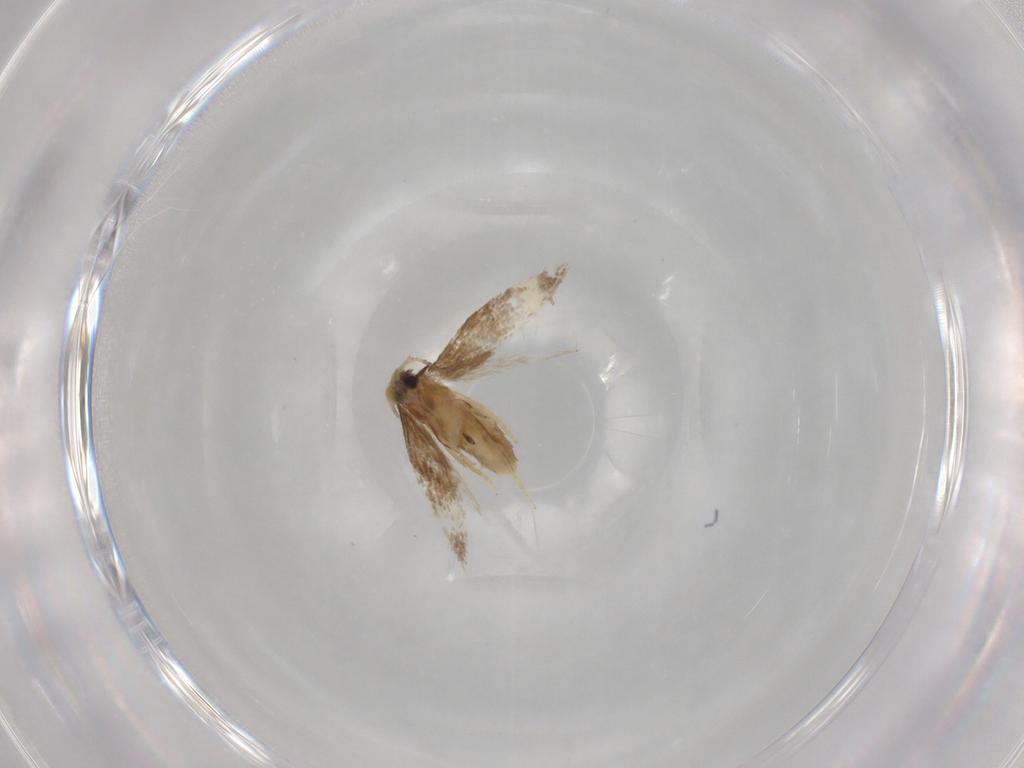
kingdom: Animalia
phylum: Arthropoda
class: Insecta
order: Lepidoptera
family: Nepticulidae
